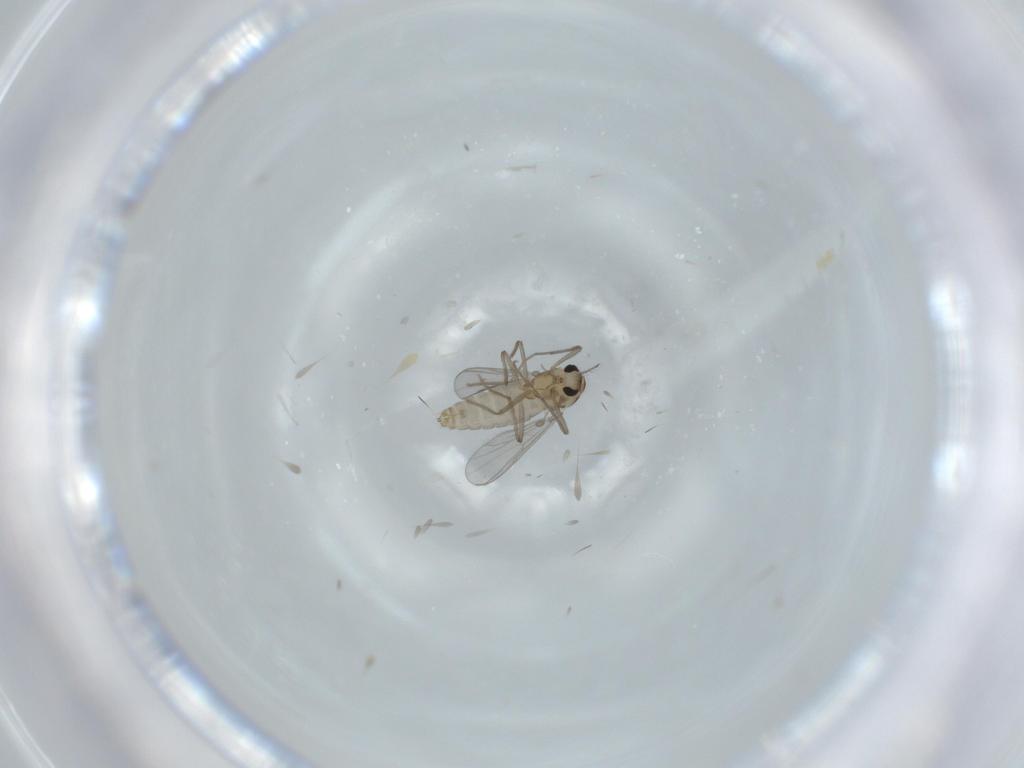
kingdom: Animalia
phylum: Arthropoda
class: Insecta
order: Diptera
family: Chironomidae
